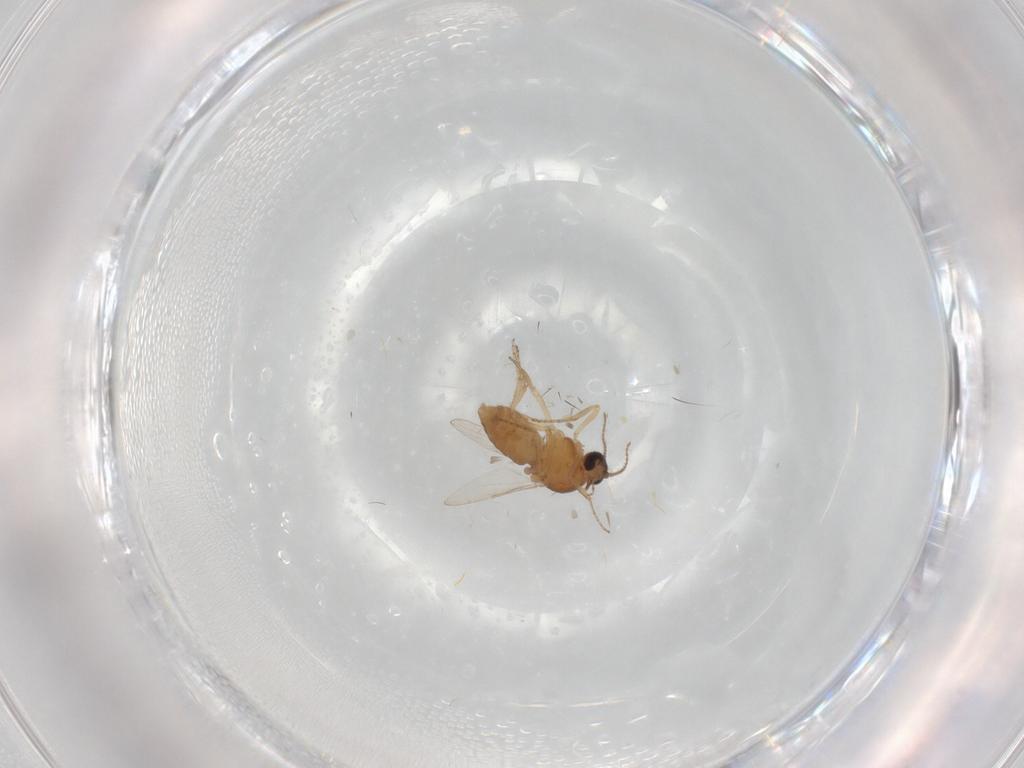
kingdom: Animalia
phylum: Arthropoda
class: Insecta
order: Diptera
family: Ceratopogonidae
